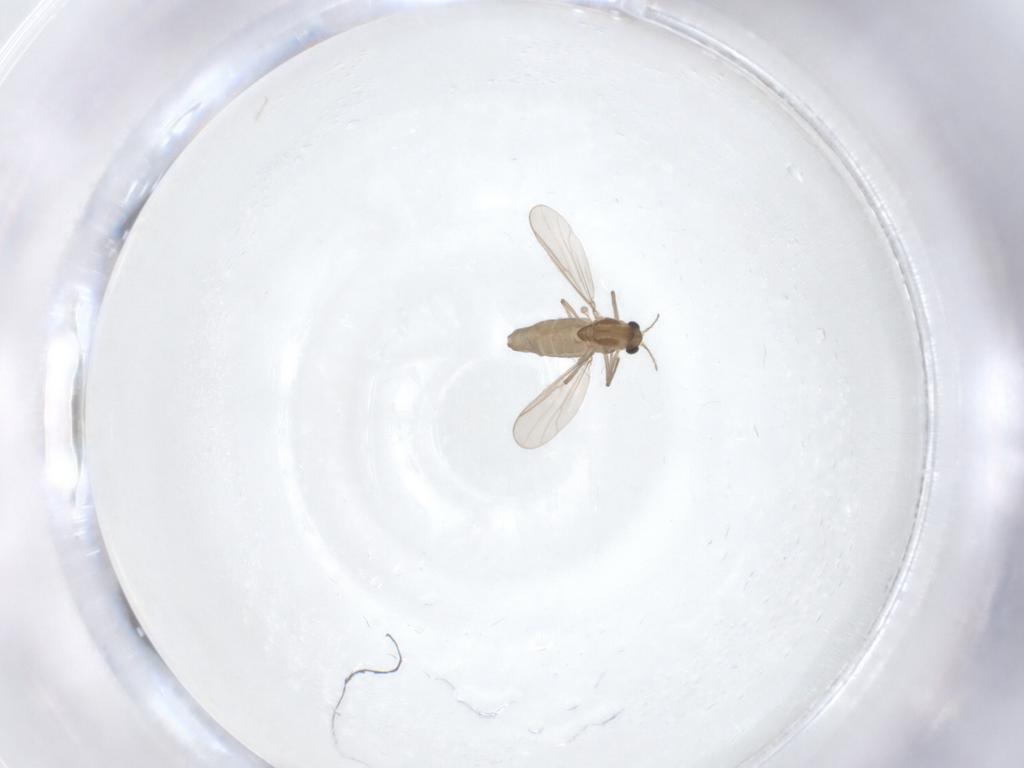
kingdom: Animalia
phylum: Arthropoda
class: Insecta
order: Diptera
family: Chironomidae
